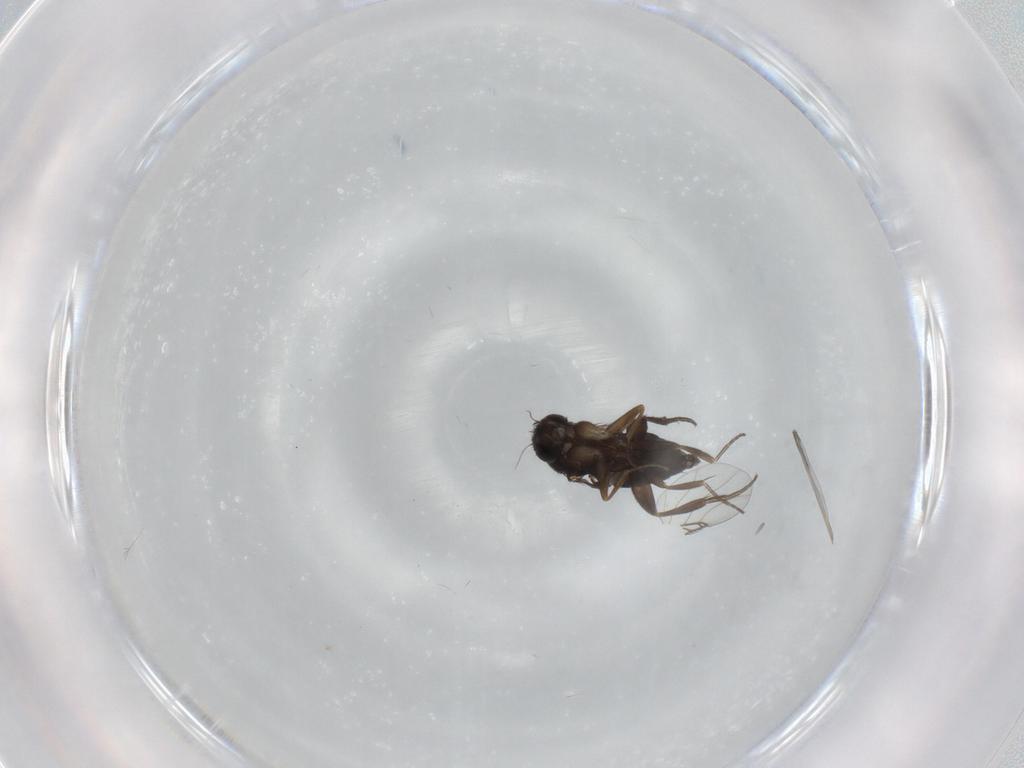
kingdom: Animalia
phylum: Arthropoda
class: Insecta
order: Diptera
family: Phoridae
